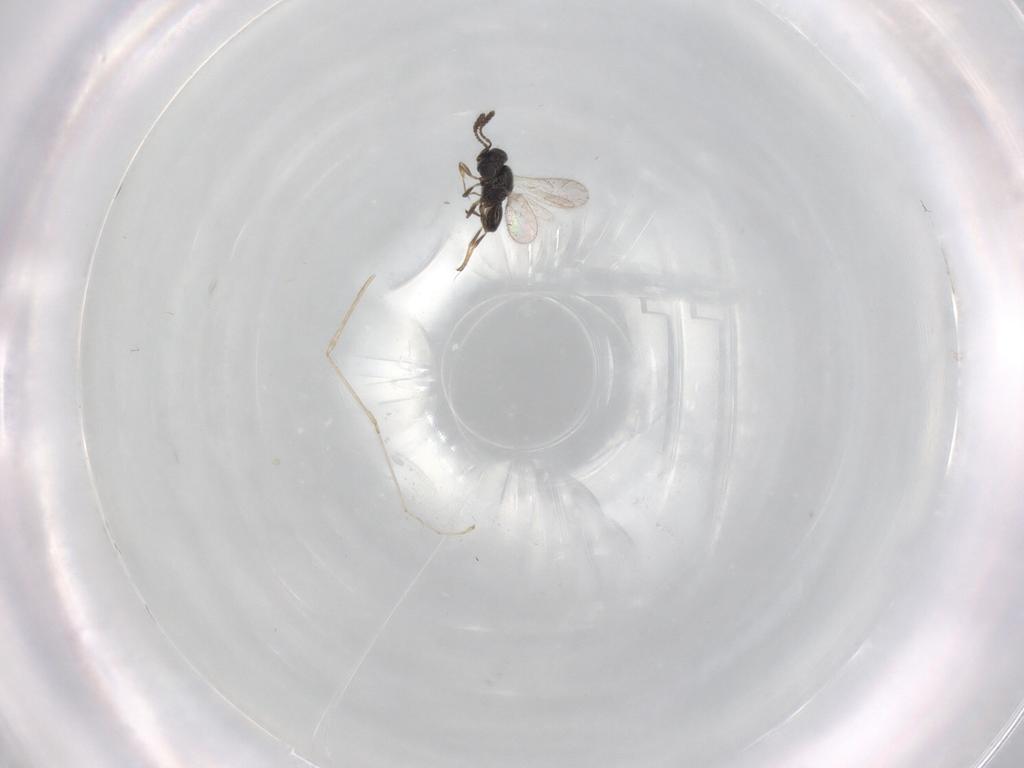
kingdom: Animalia
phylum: Arthropoda
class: Insecta
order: Hymenoptera
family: Scelionidae
